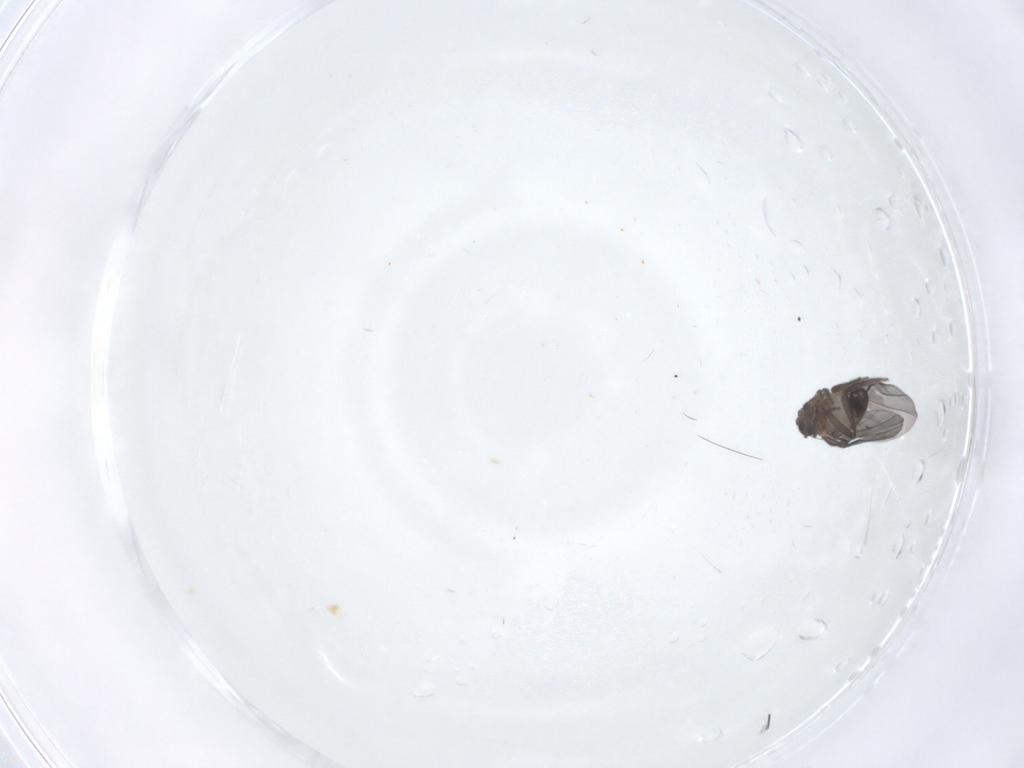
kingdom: Animalia
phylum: Arthropoda
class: Insecta
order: Diptera
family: Phoridae
